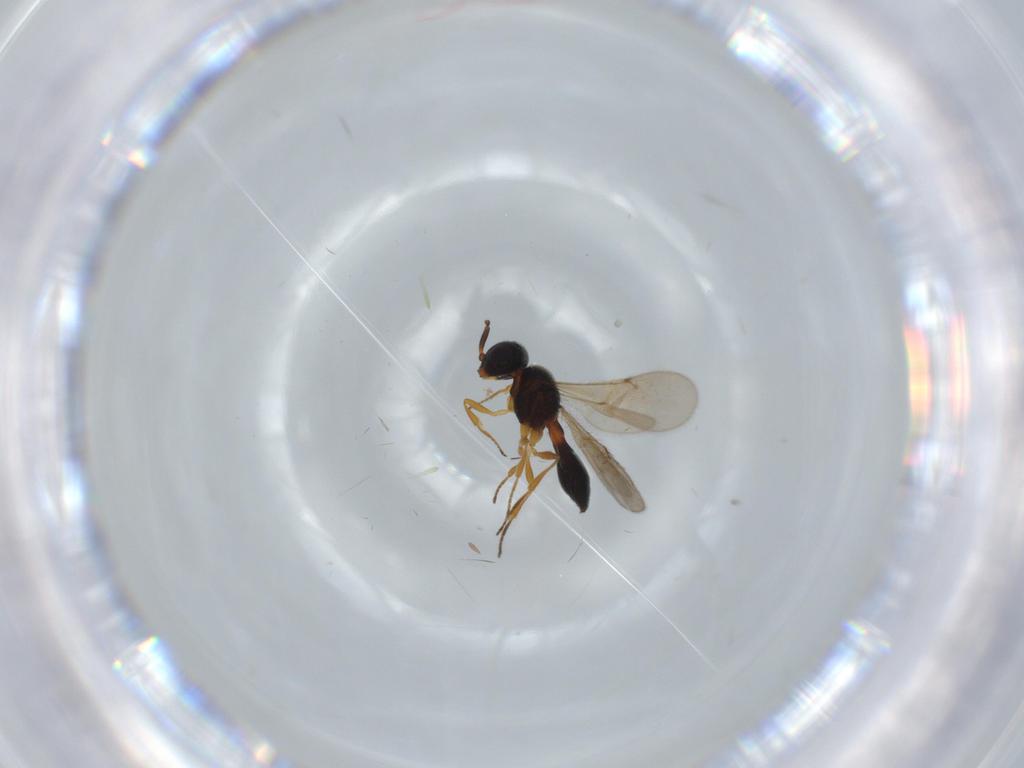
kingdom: Animalia
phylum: Arthropoda
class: Insecta
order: Hymenoptera
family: Scelionidae
